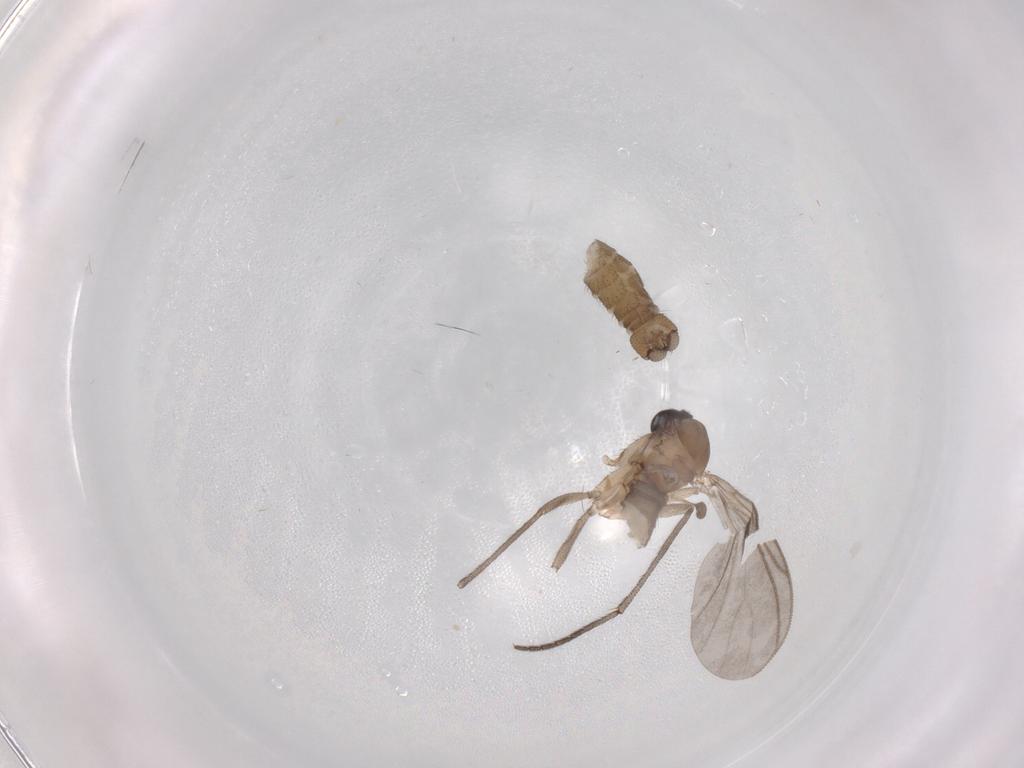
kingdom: Animalia
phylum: Arthropoda
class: Insecta
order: Diptera
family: Sciaridae
